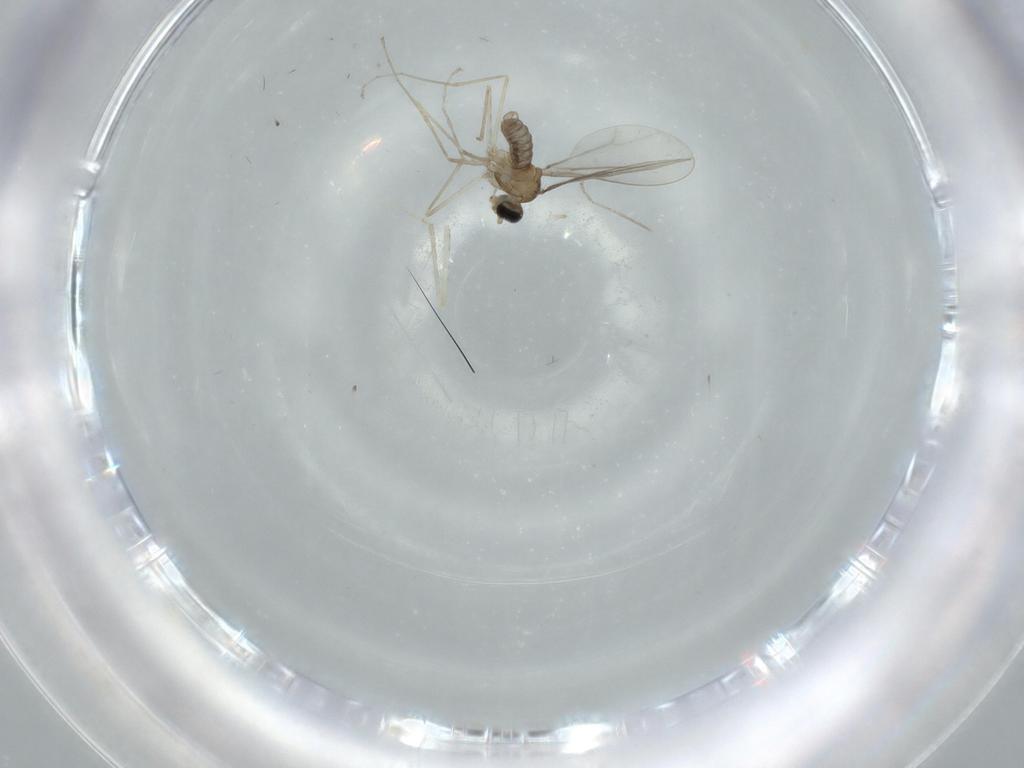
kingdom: Animalia
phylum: Arthropoda
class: Insecta
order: Diptera
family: Cecidomyiidae
